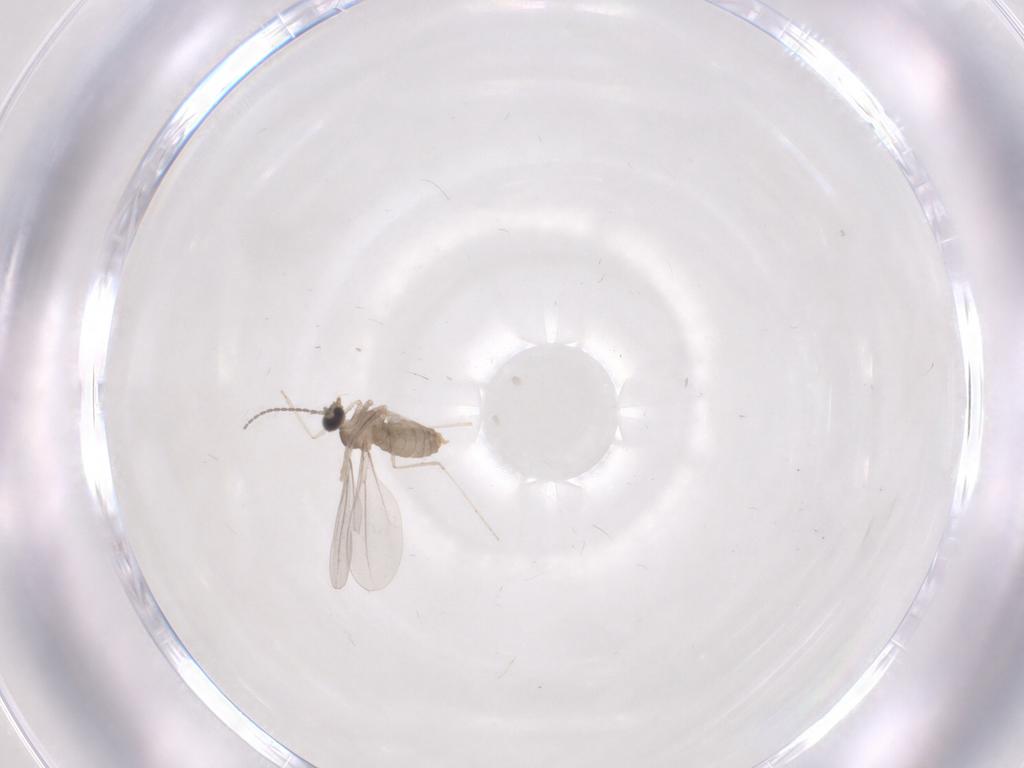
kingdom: Animalia
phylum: Arthropoda
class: Insecta
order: Diptera
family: Cecidomyiidae
